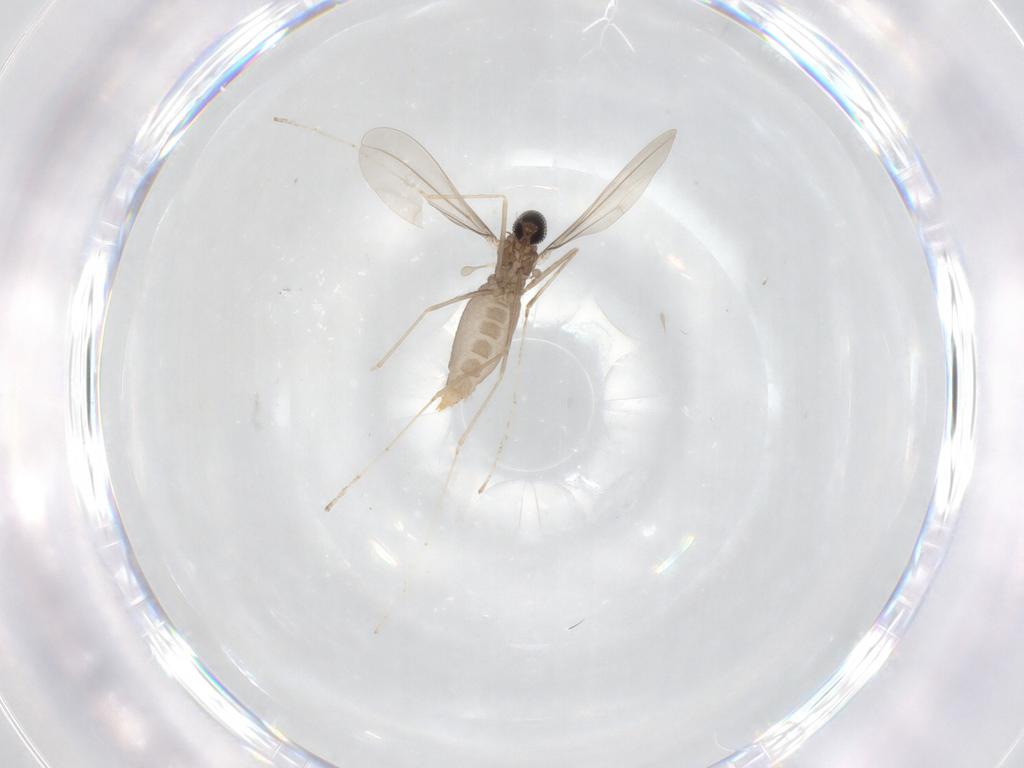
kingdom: Animalia
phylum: Arthropoda
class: Insecta
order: Diptera
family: Cecidomyiidae
